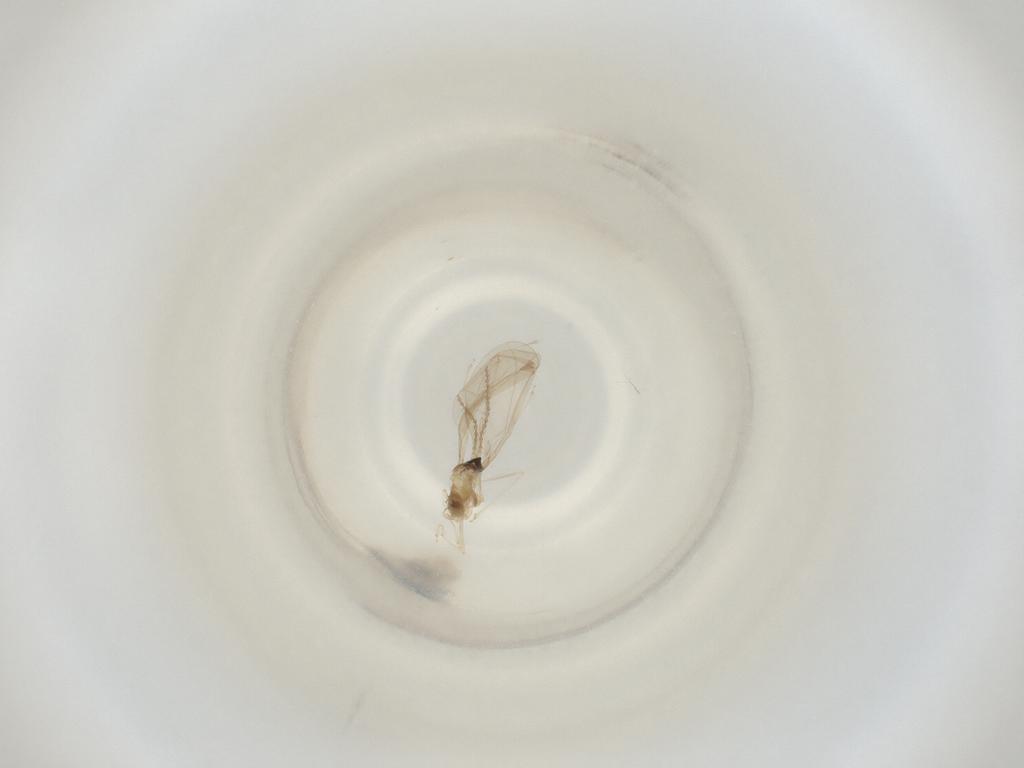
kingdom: Animalia
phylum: Arthropoda
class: Insecta
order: Diptera
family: Cecidomyiidae
